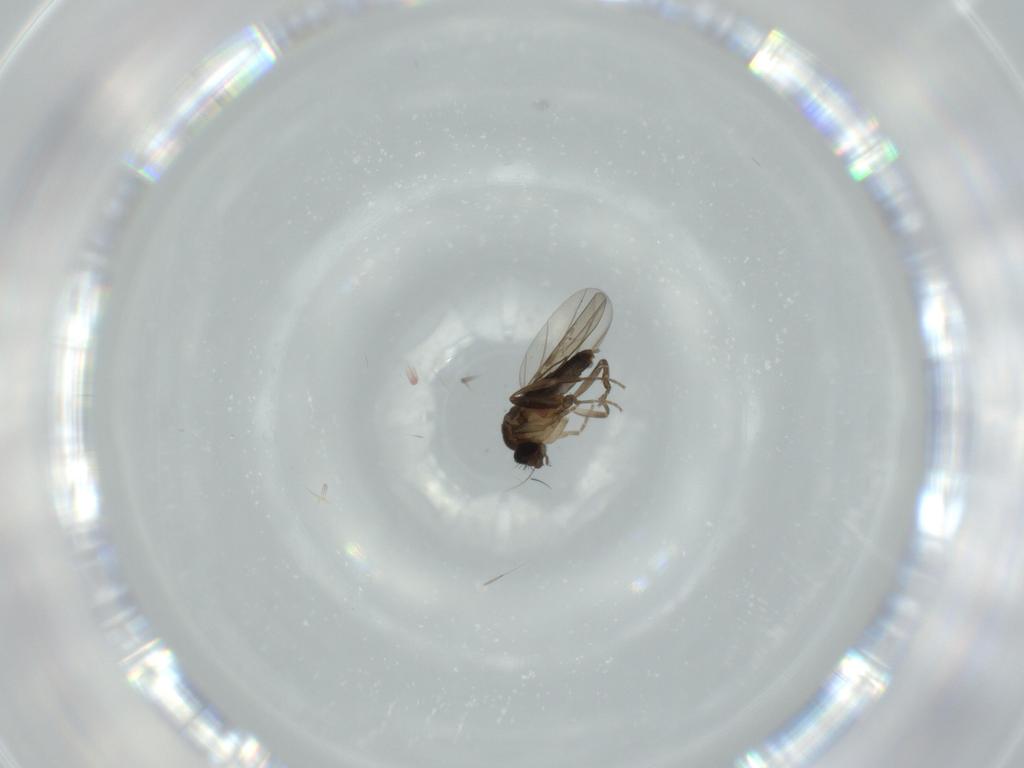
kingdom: Animalia
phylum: Arthropoda
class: Insecta
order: Diptera
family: Phoridae
